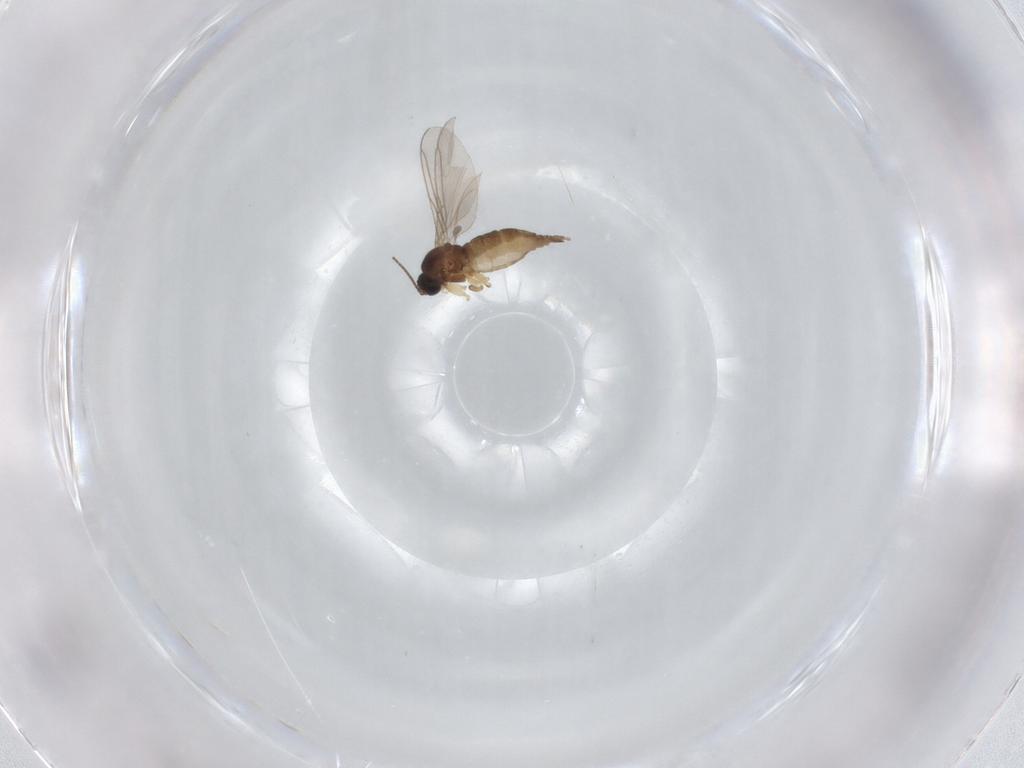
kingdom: Animalia
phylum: Arthropoda
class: Insecta
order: Diptera
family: Sciaridae
